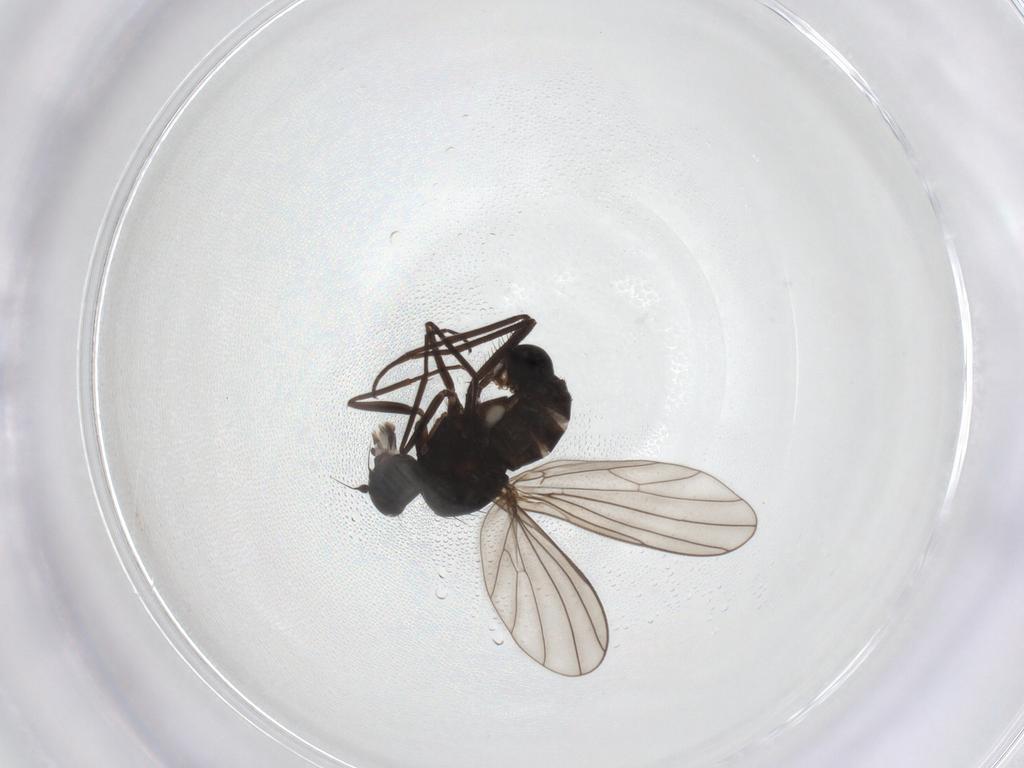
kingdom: Animalia
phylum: Arthropoda
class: Insecta
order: Diptera
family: Dolichopodidae
